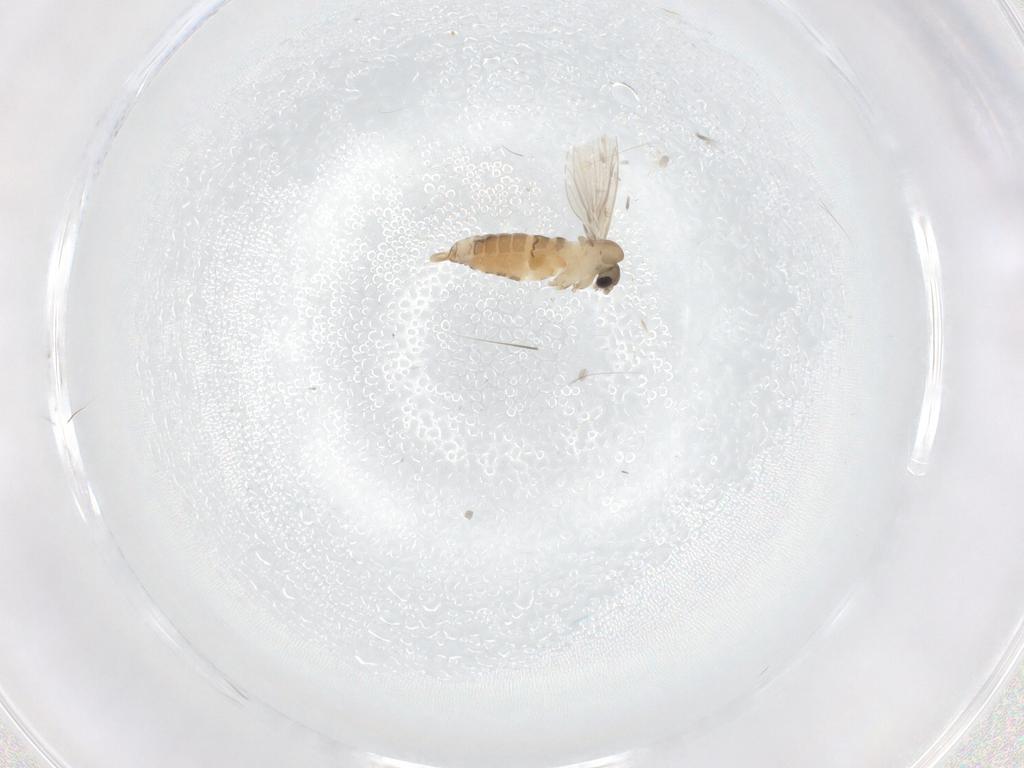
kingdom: Animalia
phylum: Arthropoda
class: Insecta
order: Diptera
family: Psychodidae
